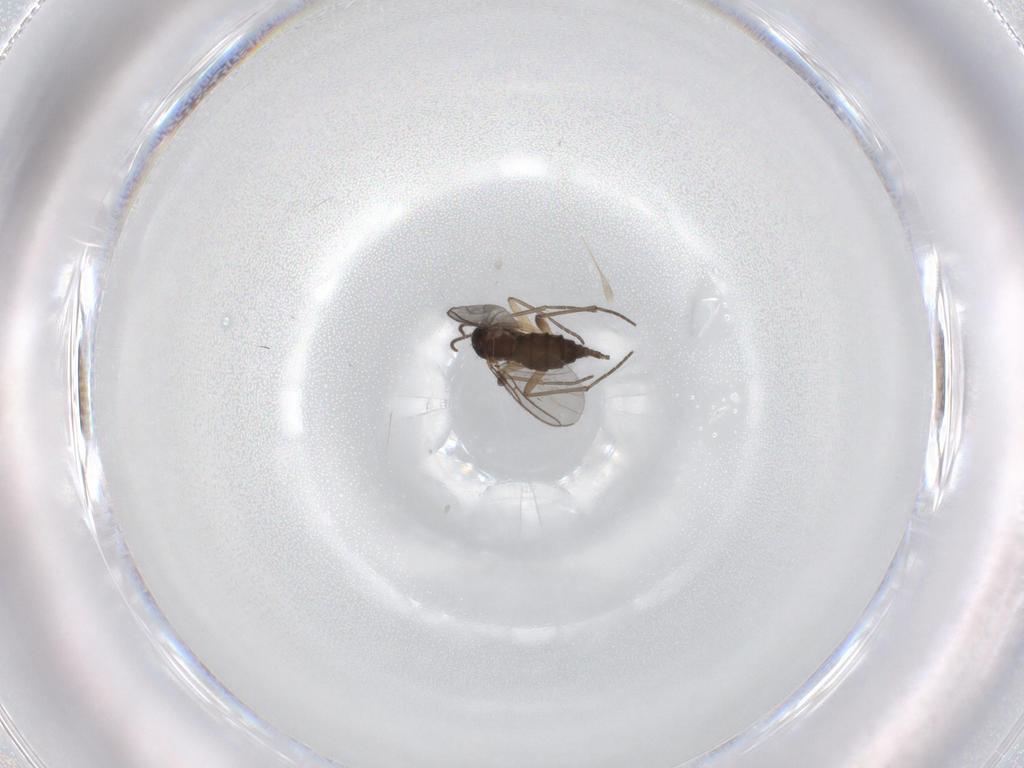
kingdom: Animalia
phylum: Arthropoda
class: Insecta
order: Diptera
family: Sciaridae
